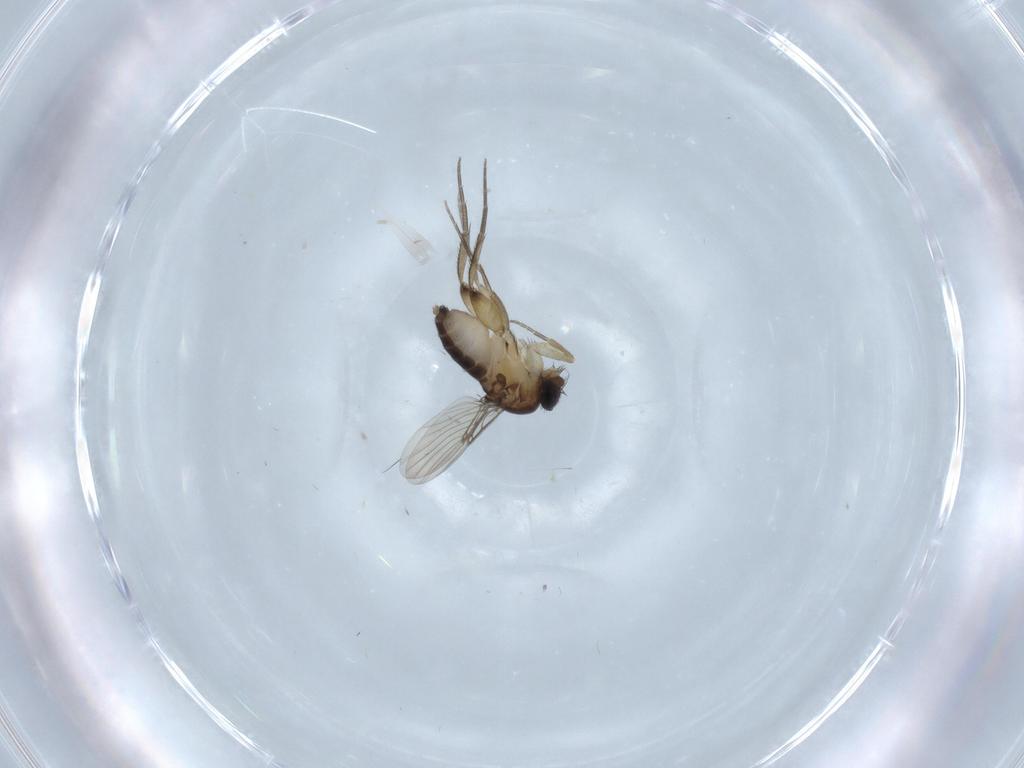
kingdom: Animalia
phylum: Arthropoda
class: Insecta
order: Diptera
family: Phoridae
